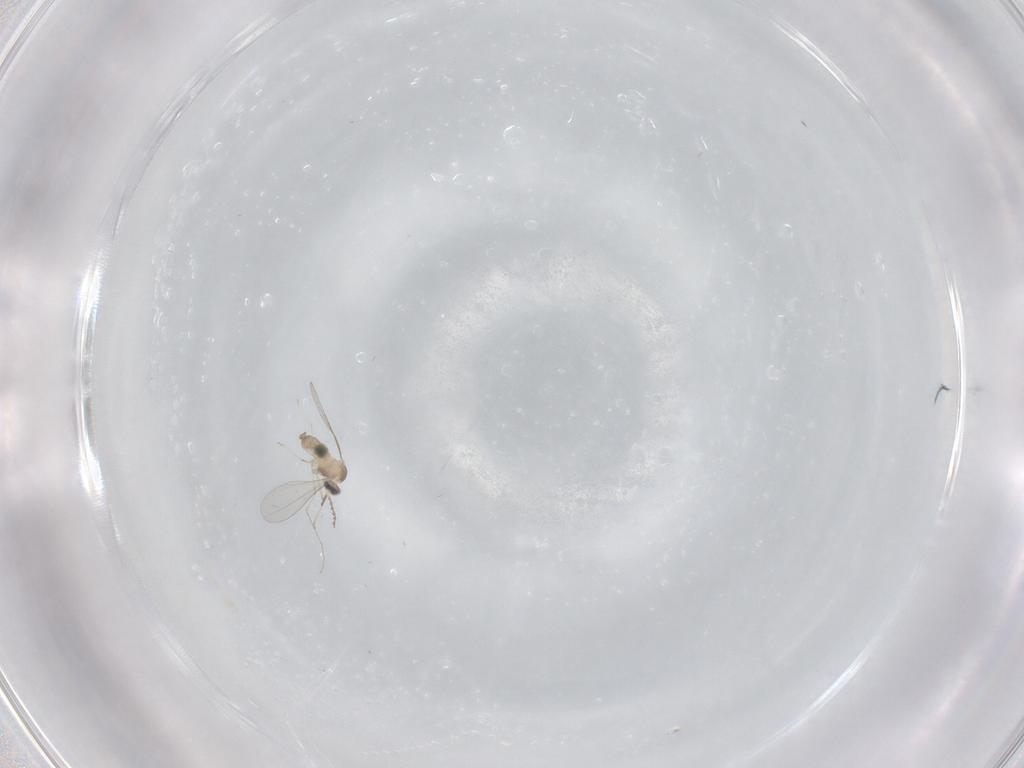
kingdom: Animalia
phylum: Arthropoda
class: Insecta
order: Diptera
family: Cecidomyiidae
